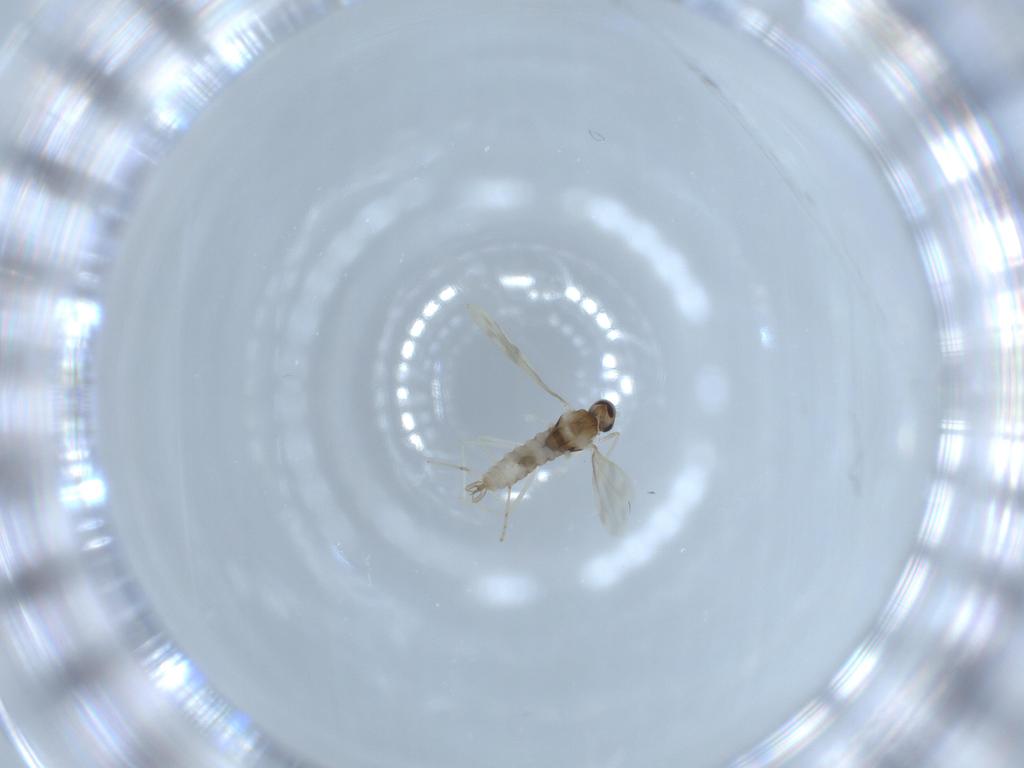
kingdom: Animalia
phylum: Arthropoda
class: Insecta
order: Diptera
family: Cecidomyiidae
